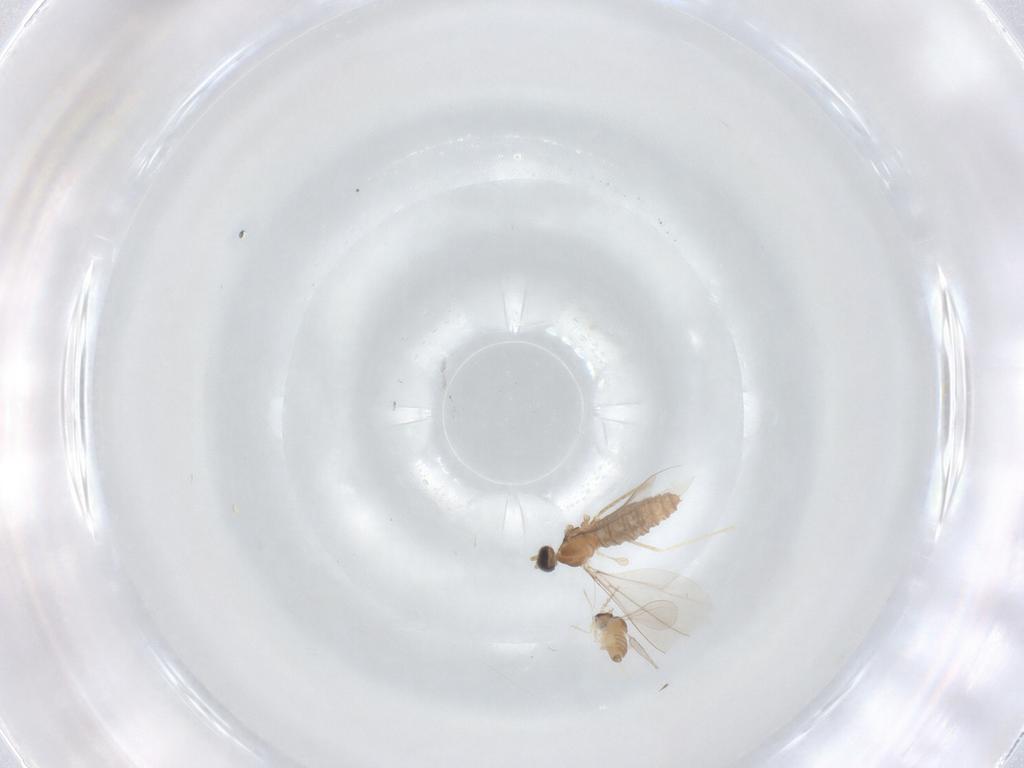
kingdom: Animalia
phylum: Arthropoda
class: Insecta
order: Diptera
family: Cecidomyiidae
